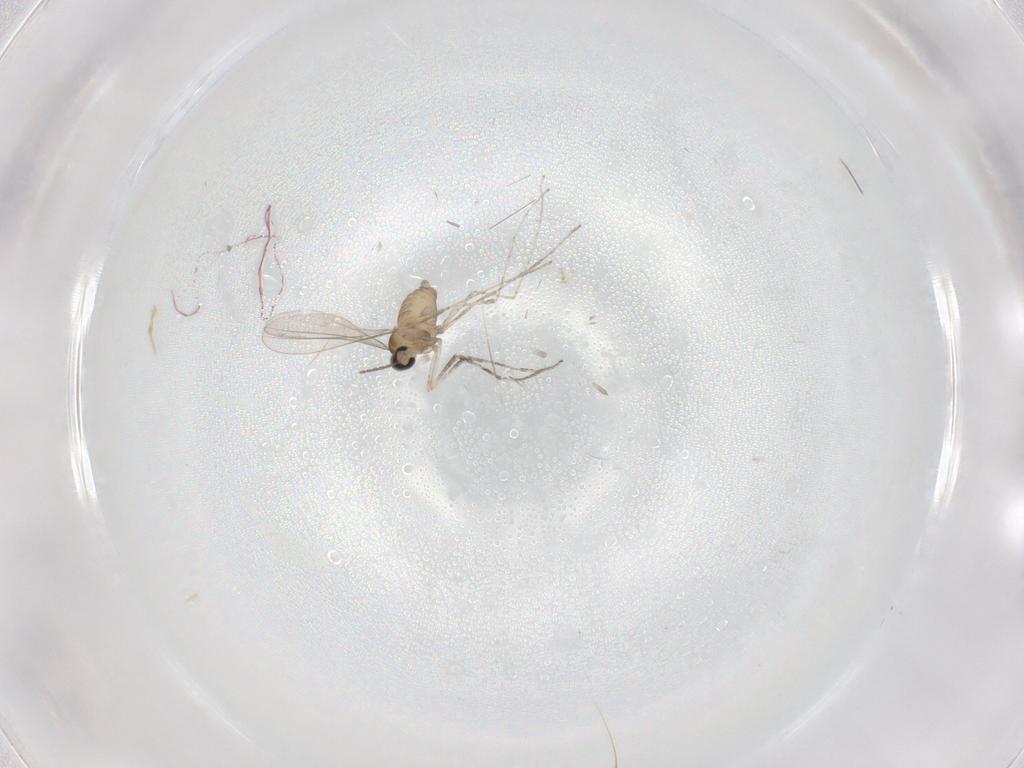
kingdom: Animalia
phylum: Arthropoda
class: Insecta
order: Diptera
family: Cecidomyiidae
